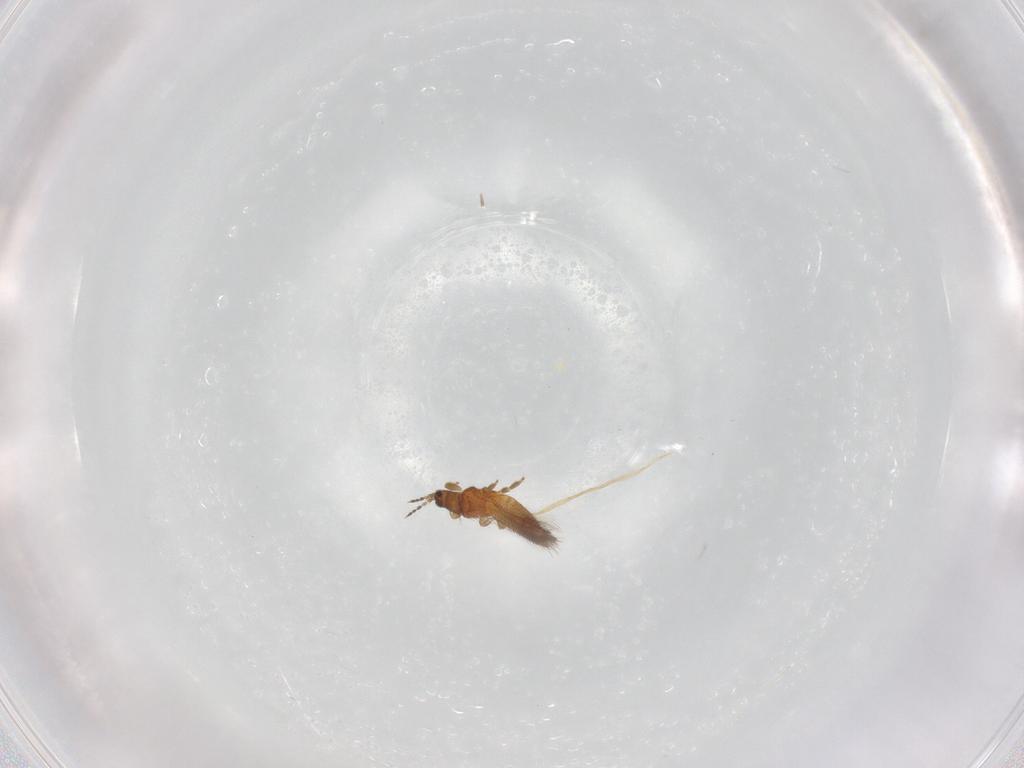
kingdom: Animalia
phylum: Arthropoda
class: Insecta
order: Thysanoptera
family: Thripidae
